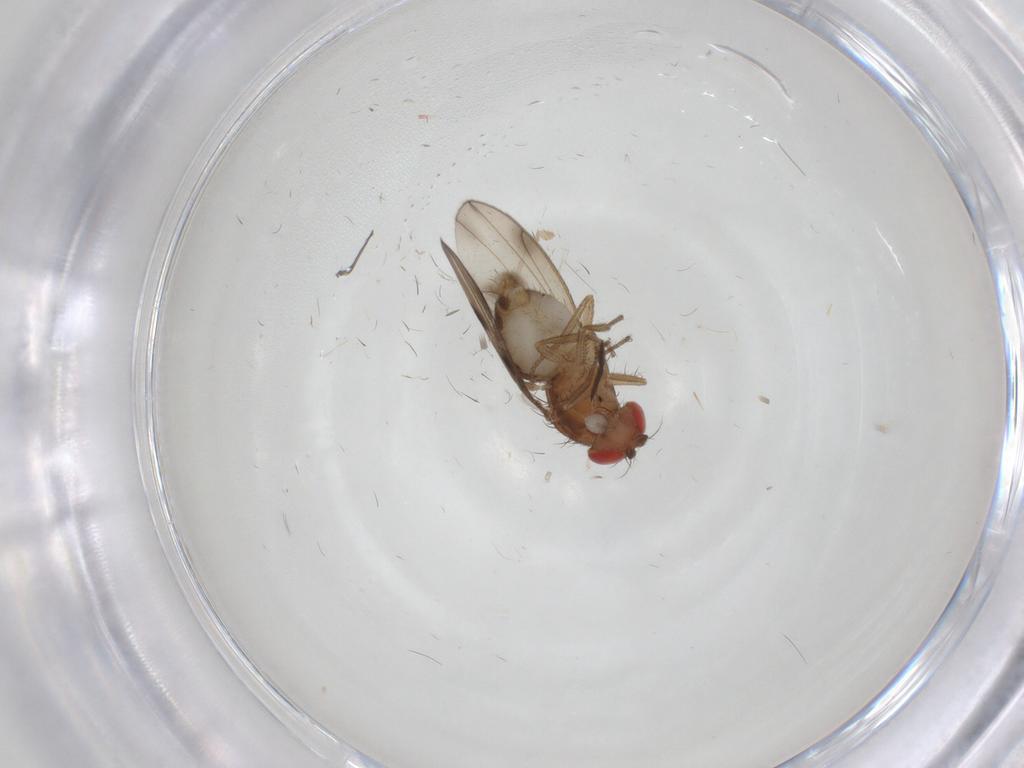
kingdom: Animalia
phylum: Arthropoda
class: Insecta
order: Diptera
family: Drosophilidae
